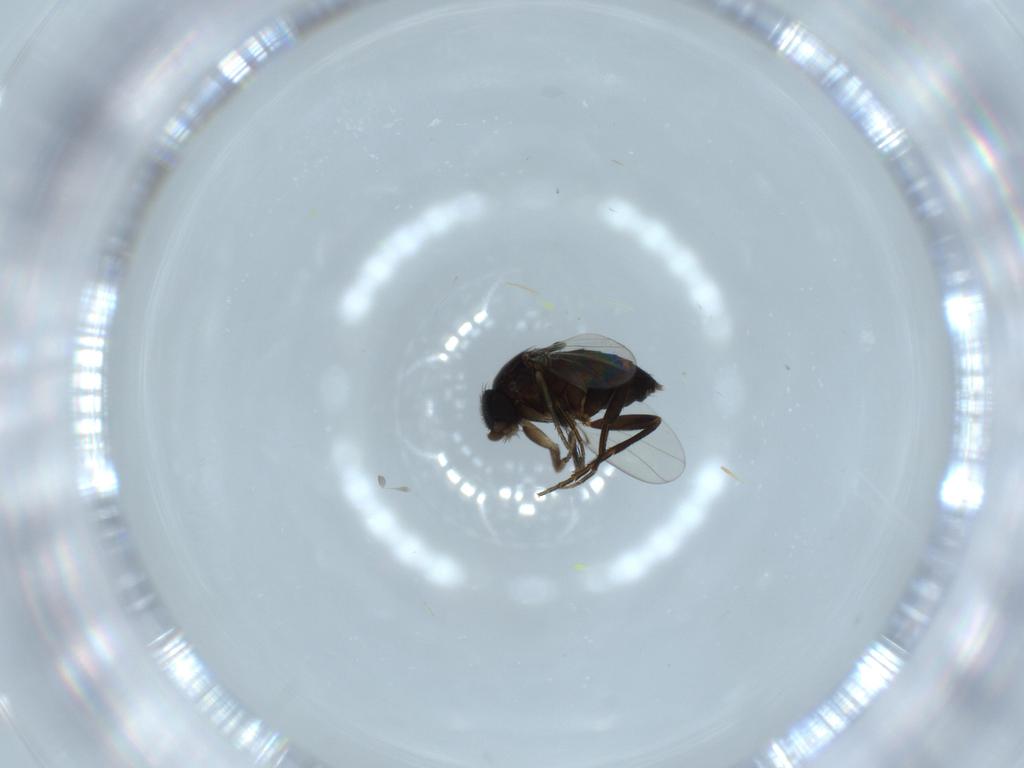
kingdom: Animalia
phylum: Arthropoda
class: Insecta
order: Diptera
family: Phoridae
